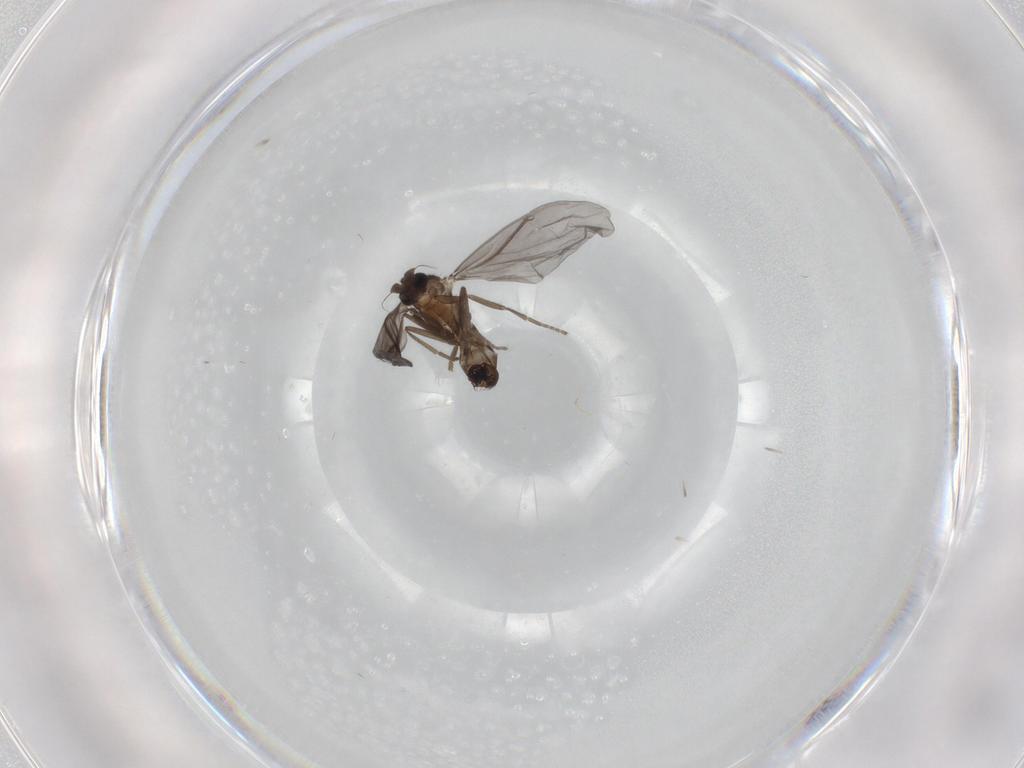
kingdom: Animalia
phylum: Arthropoda
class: Insecta
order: Diptera
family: Phoridae
